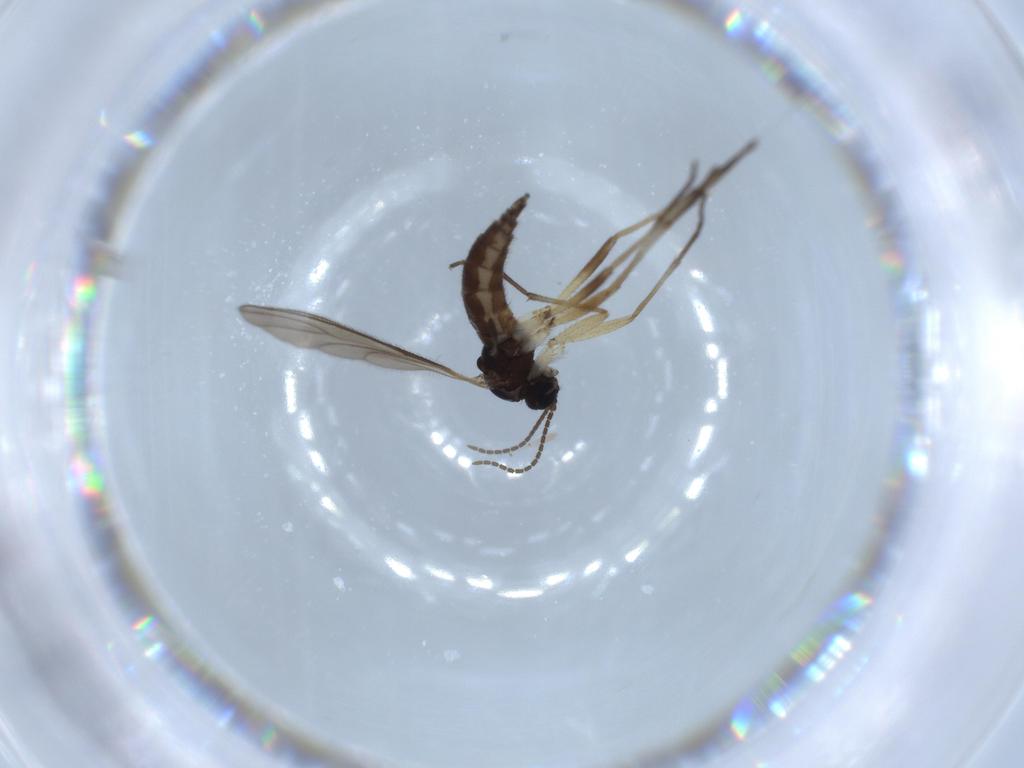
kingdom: Animalia
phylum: Arthropoda
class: Insecta
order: Diptera
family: Sciaridae
